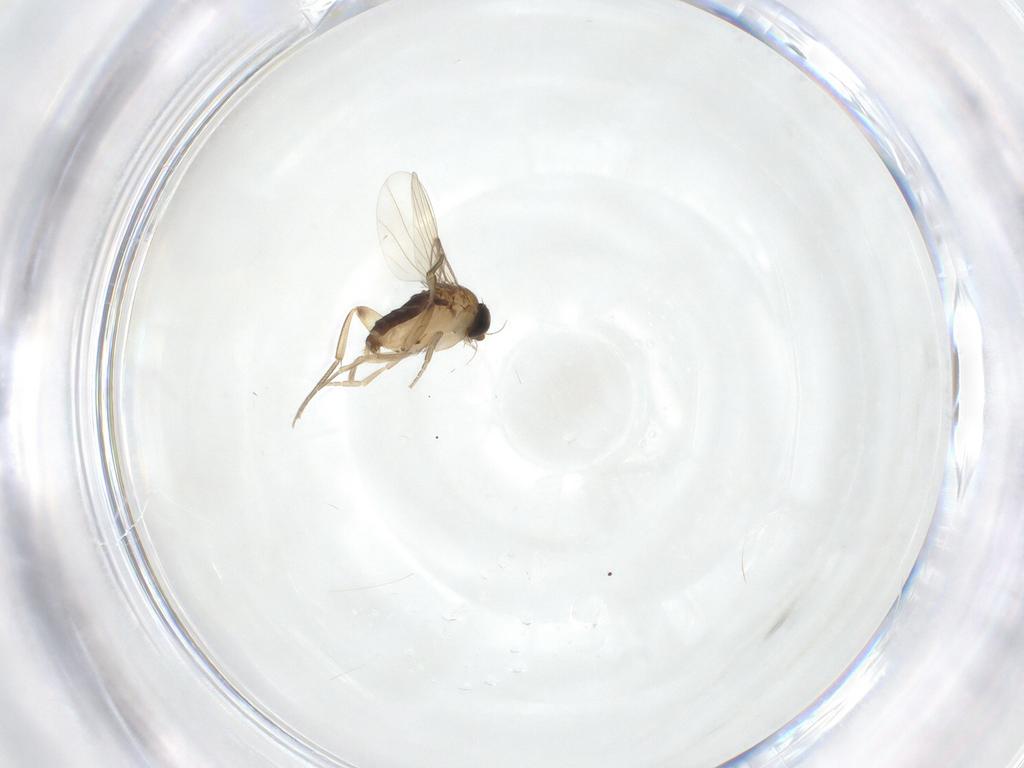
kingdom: Animalia
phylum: Arthropoda
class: Insecta
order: Diptera
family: Phoridae
